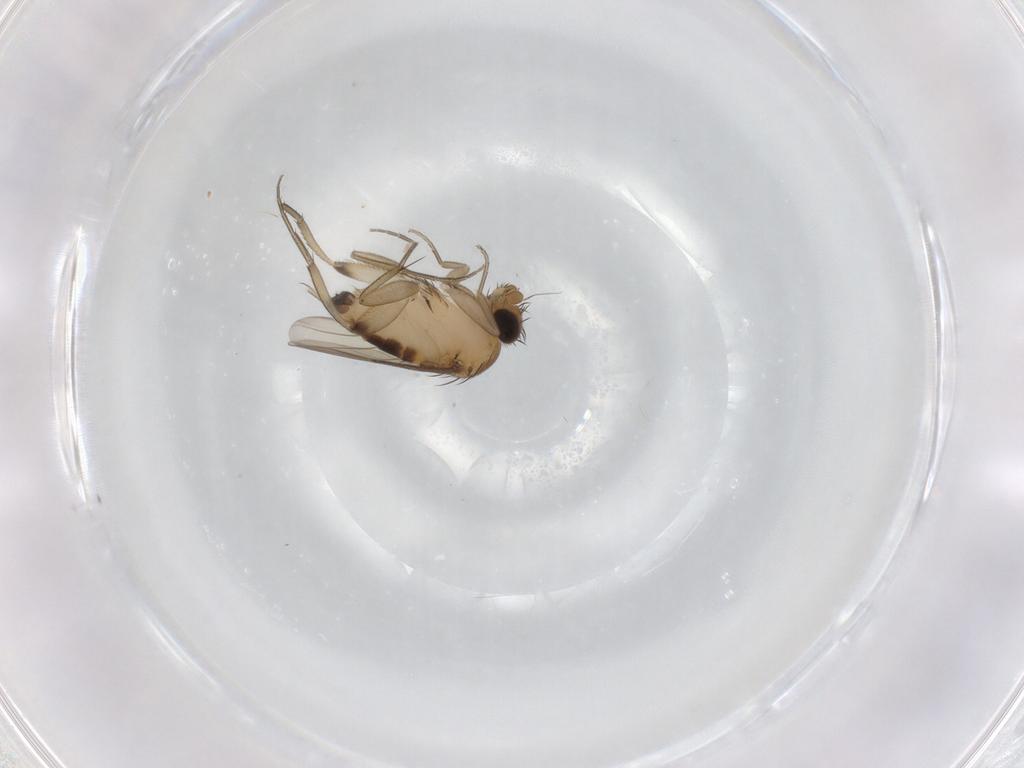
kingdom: Animalia
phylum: Arthropoda
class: Insecta
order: Diptera
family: Phoridae
